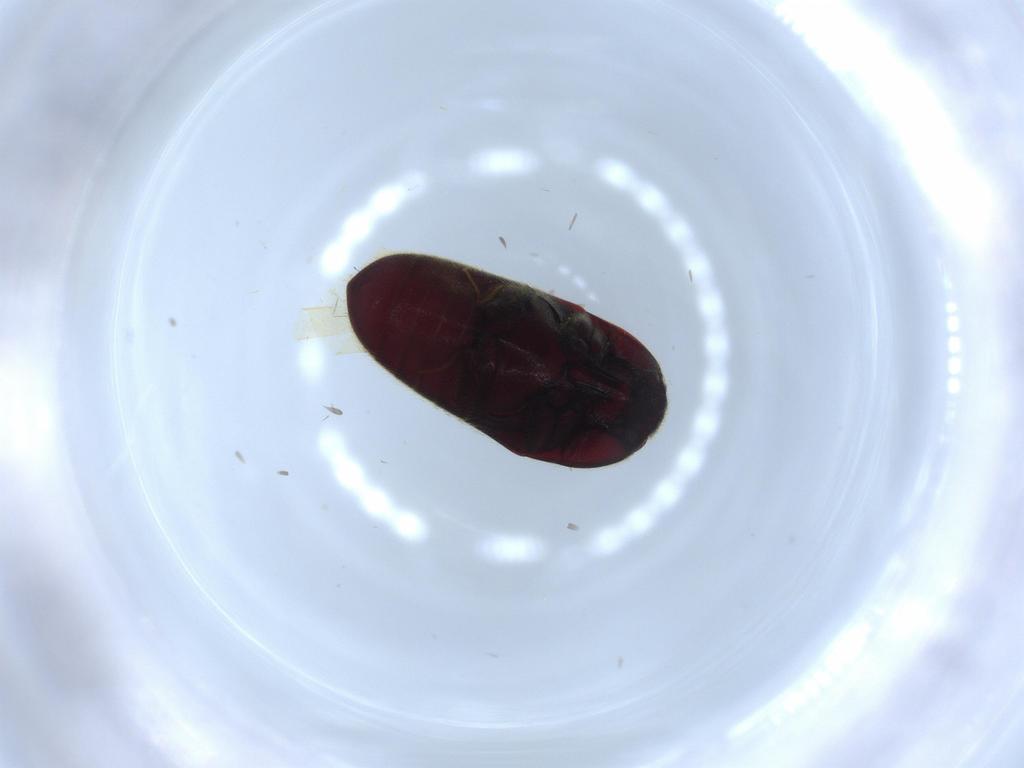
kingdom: Animalia
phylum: Arthropoda
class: Insecta
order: Coleoptera
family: Throscidae
